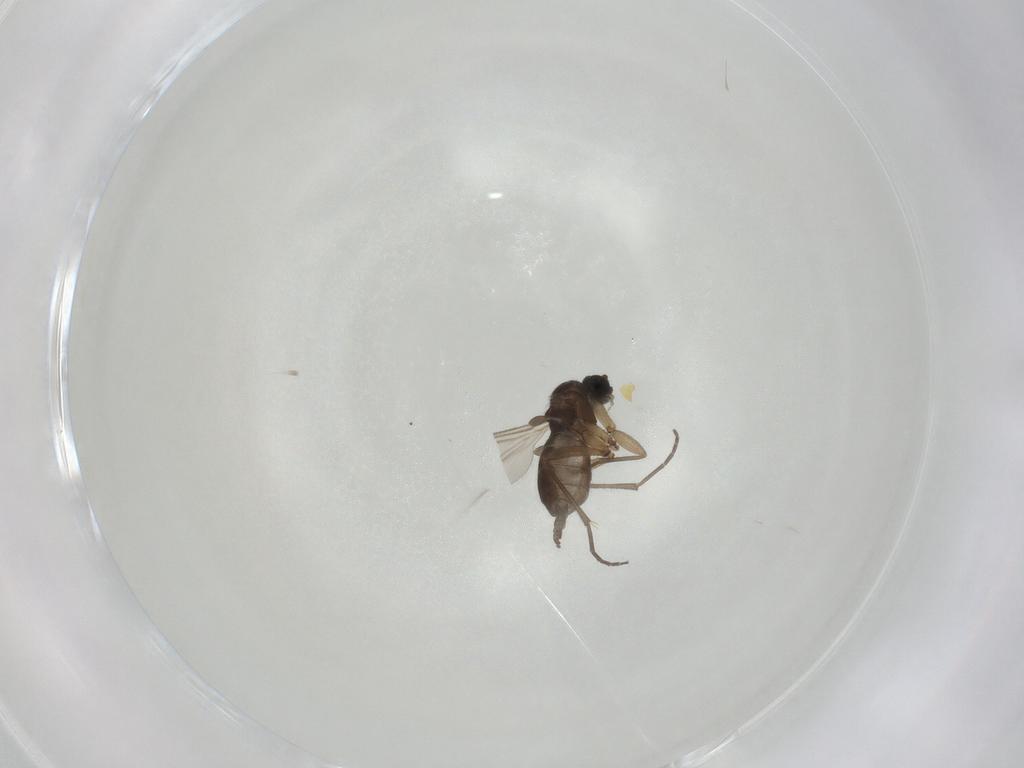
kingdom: Animalia
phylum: Arthropoda
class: Insecta
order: Diptera
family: Sciaridae
